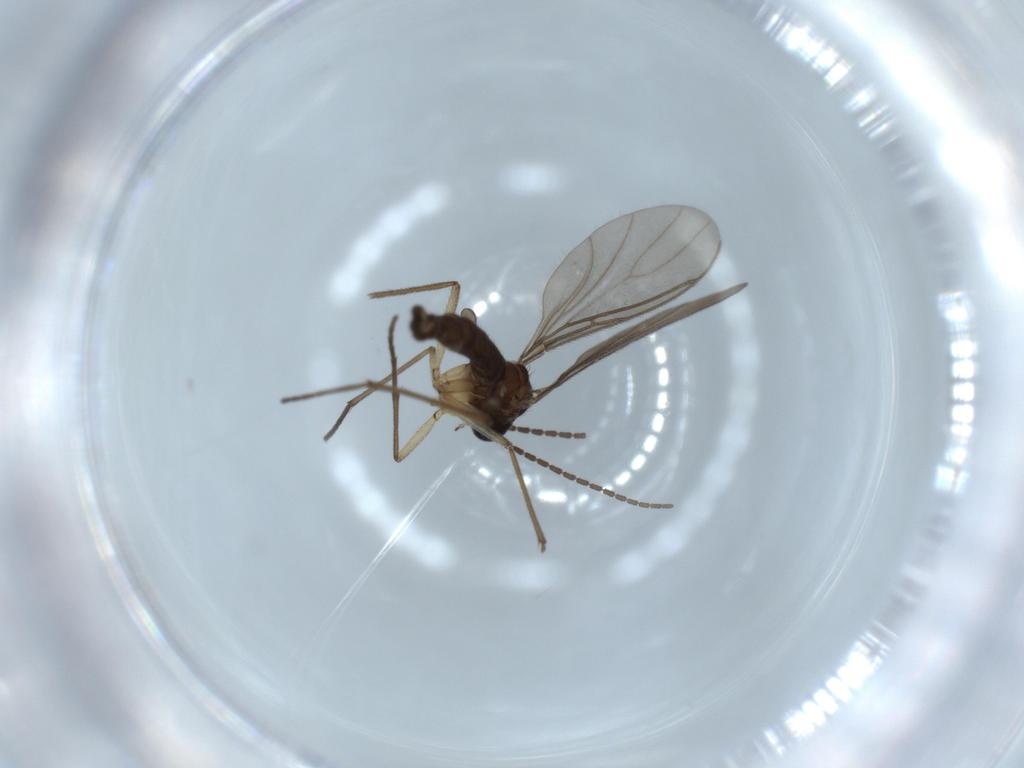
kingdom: Animalia
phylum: Arthropoda
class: Insecta
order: Diptera
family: Sciaridae
